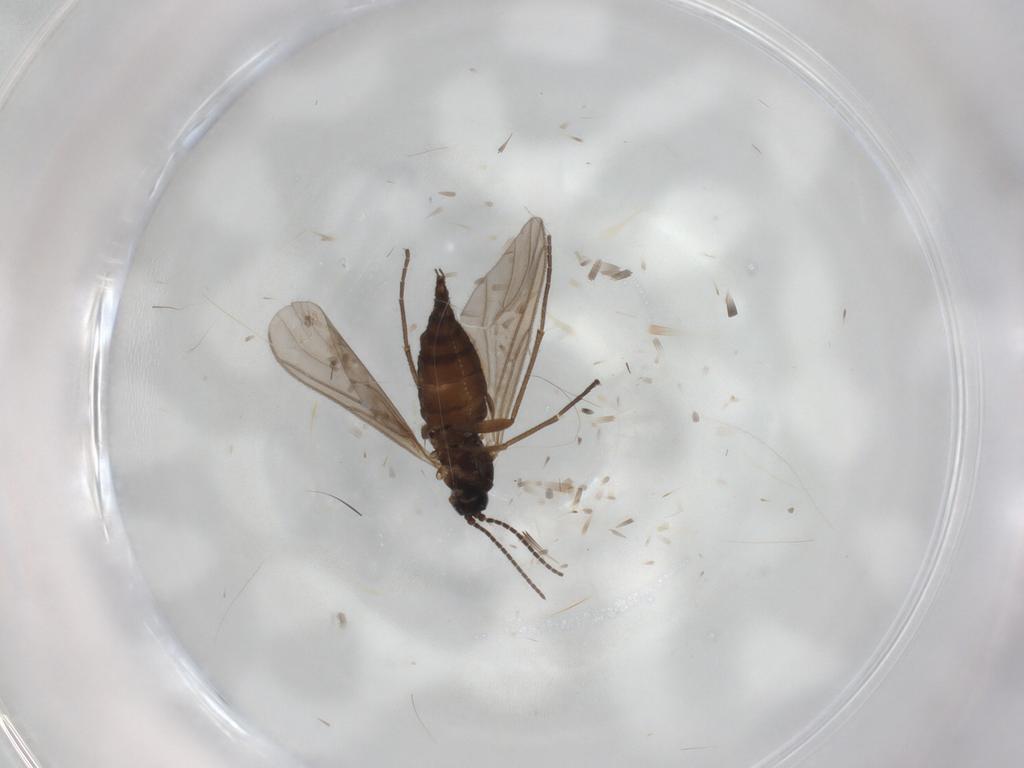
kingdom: Animalia
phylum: Arthropoda
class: Insecta
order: Diptera
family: Sciaridae
